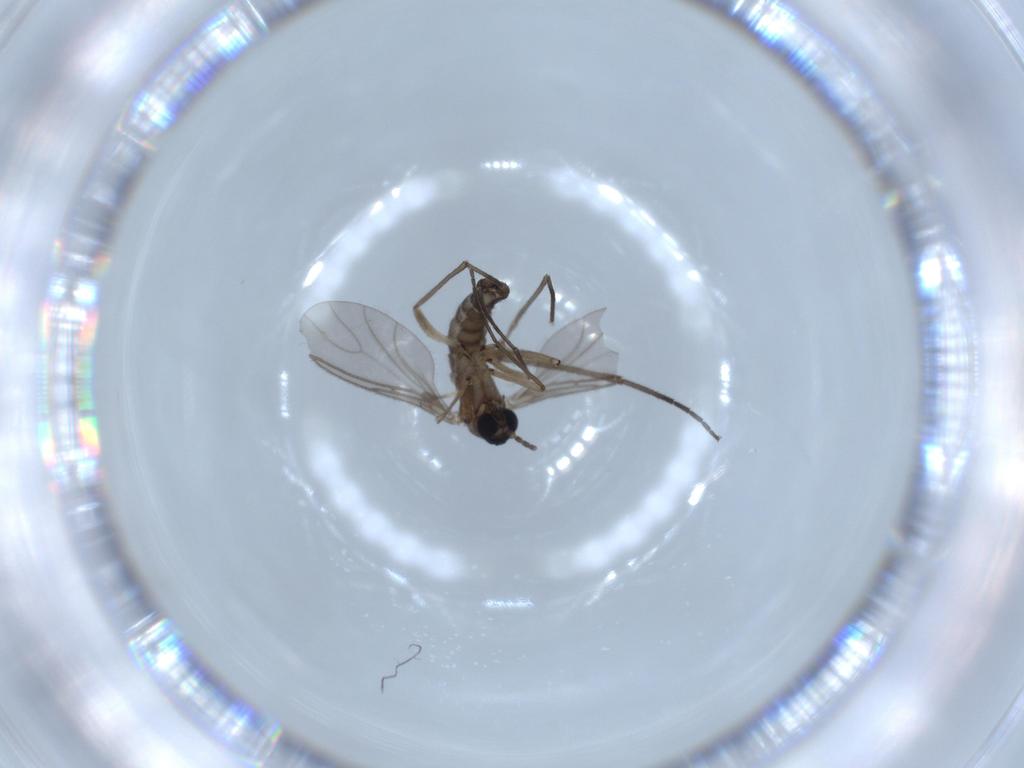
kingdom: Animalia
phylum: Arthropoda
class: Insecta
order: Diptera
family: Sciaridae
